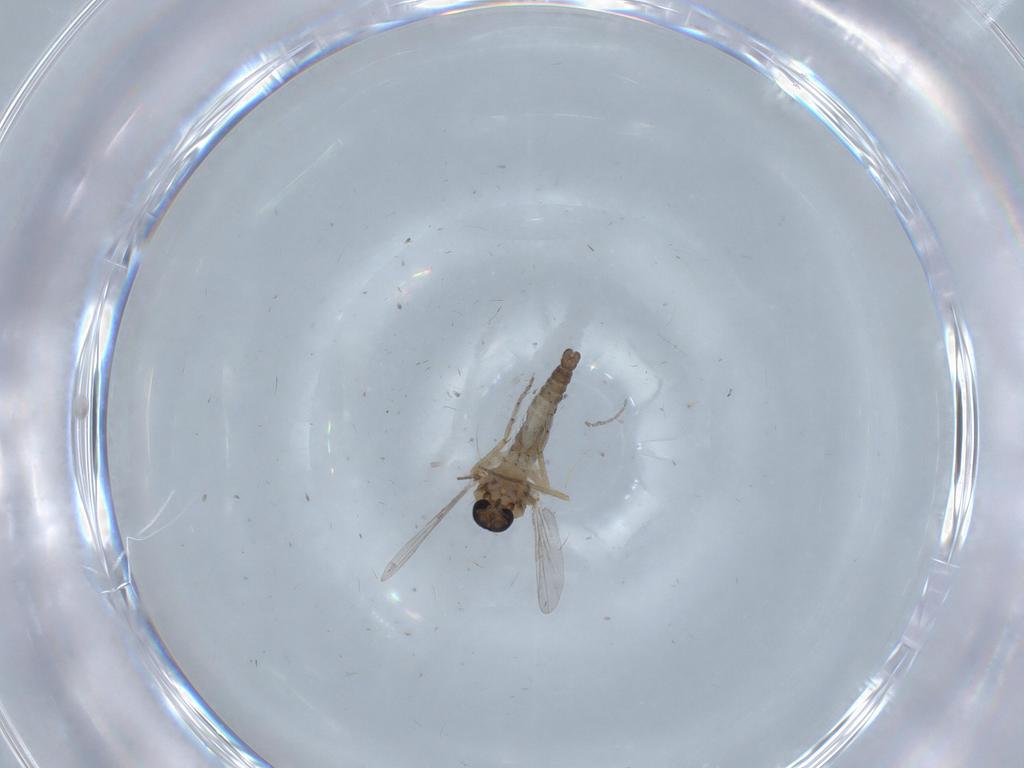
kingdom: Animalia
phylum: Arthropoda
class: Insecta
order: Diptera
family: Ceratopogonidae
